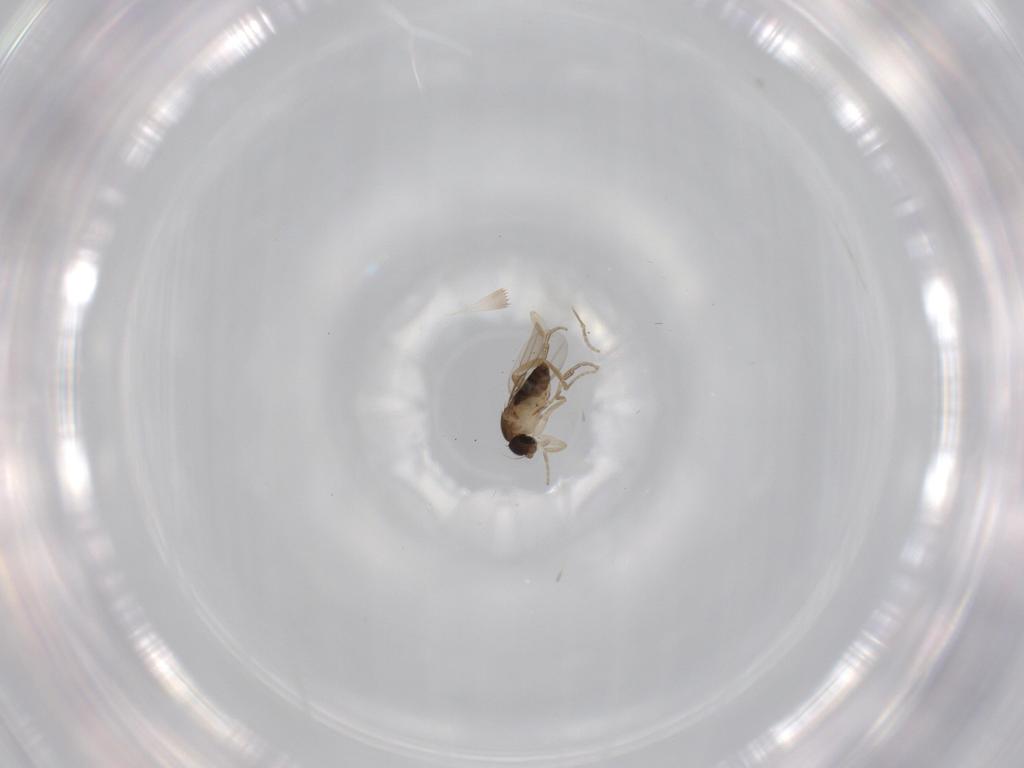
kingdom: Animalia
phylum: Arthropoda
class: Insecta
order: Diptera
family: Phoridae
